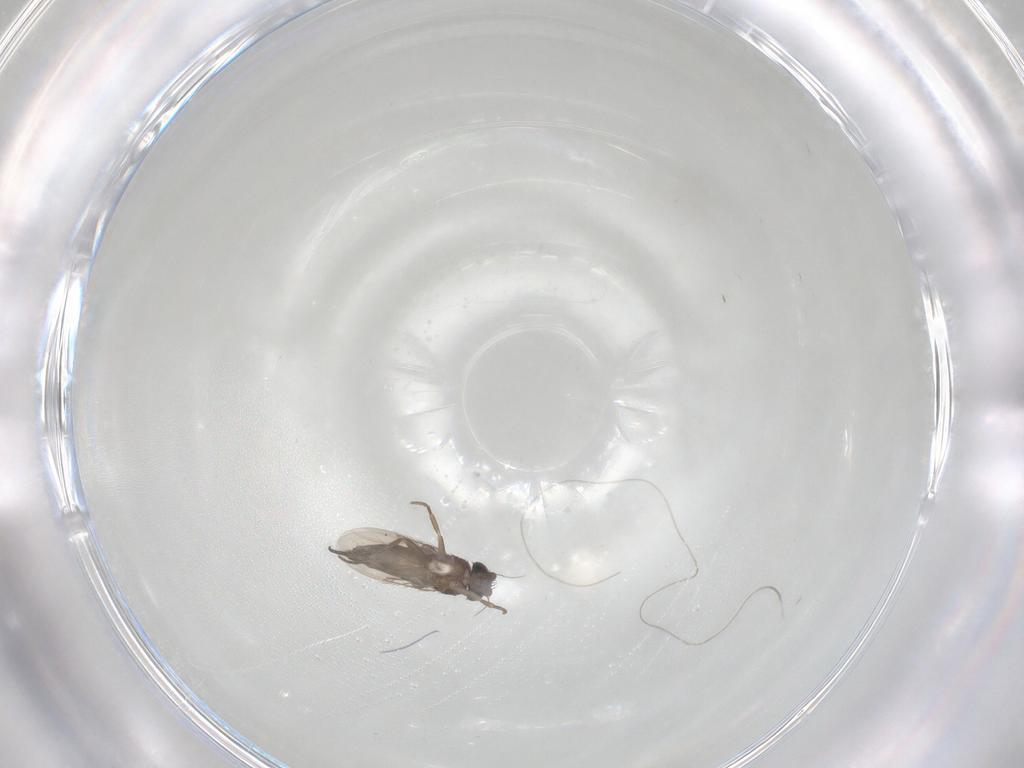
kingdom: Animalia
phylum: Arthropoda
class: Insecta
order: Diptera
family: Phoridae
